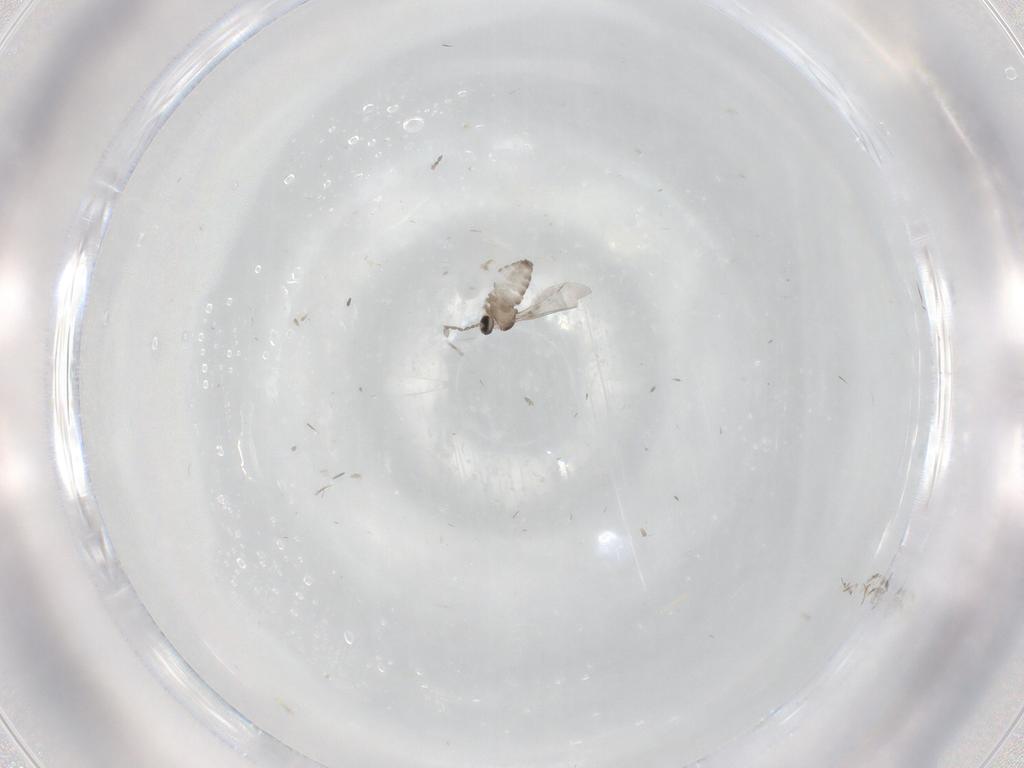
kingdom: Animalia
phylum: Arthropoda
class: Insecta
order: Diptera
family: Cecidomyiidae
